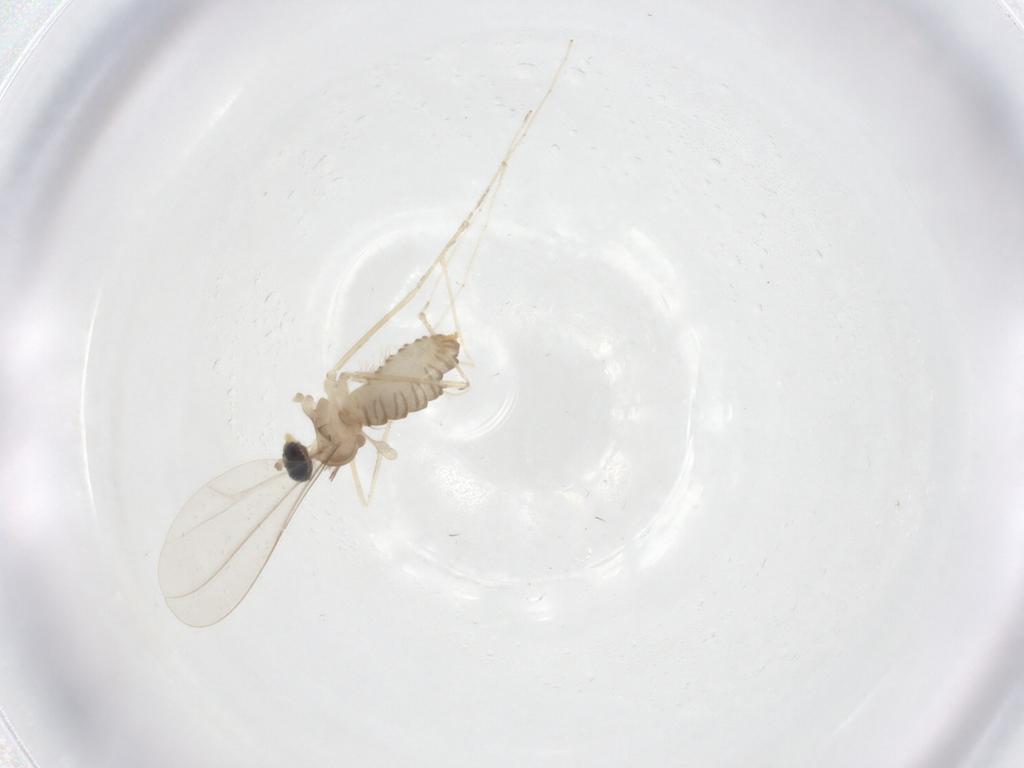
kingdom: Animalia
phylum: Arthropoda
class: Insecta
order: Diptera
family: Cecidomyiidae
